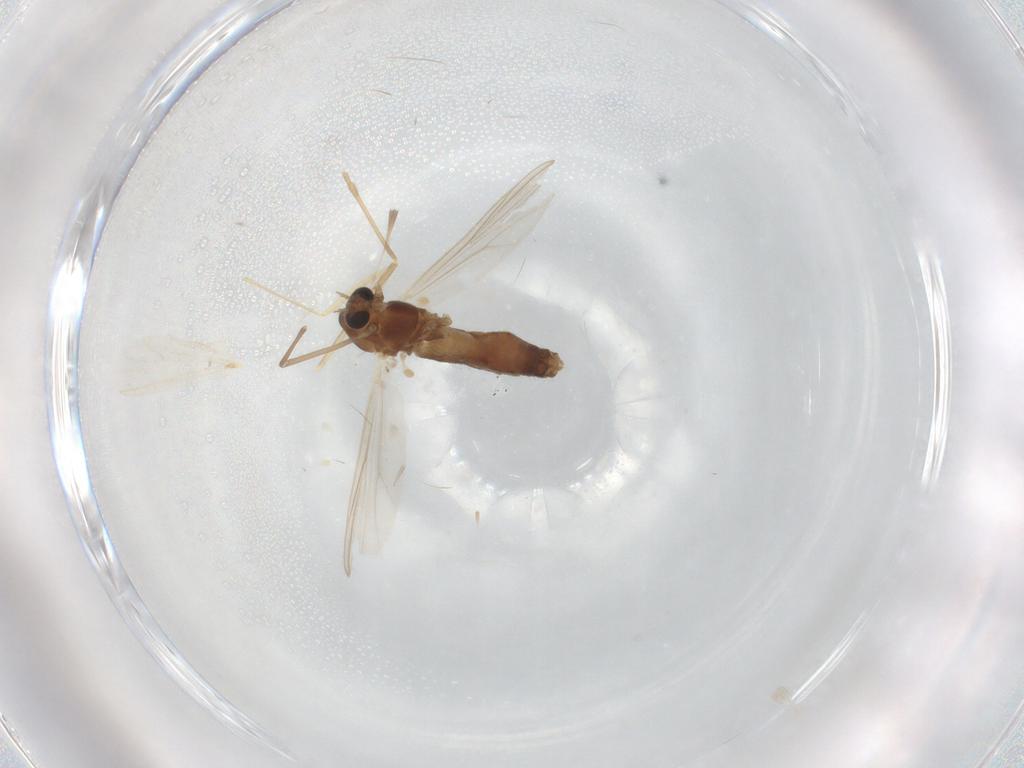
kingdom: Animalia
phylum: Arthropoda
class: Insecta
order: Diptera
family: Chironomidae
